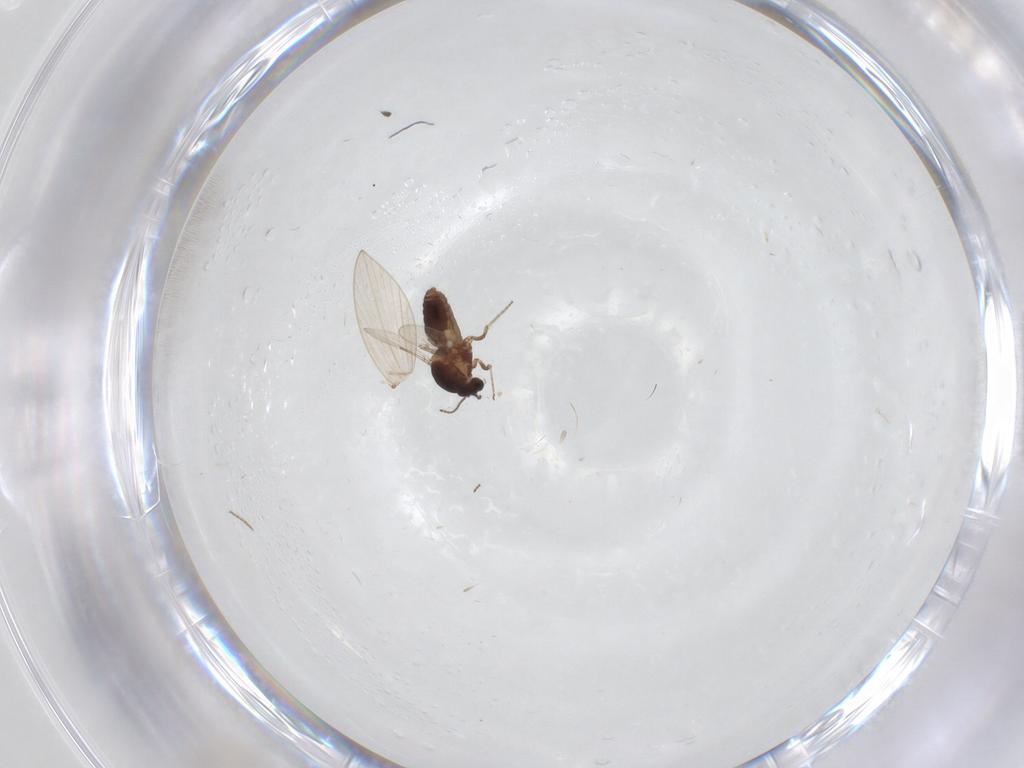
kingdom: Animalia
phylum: Arthropoda
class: Insecta
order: Diptera
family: Ceratopogonidae
